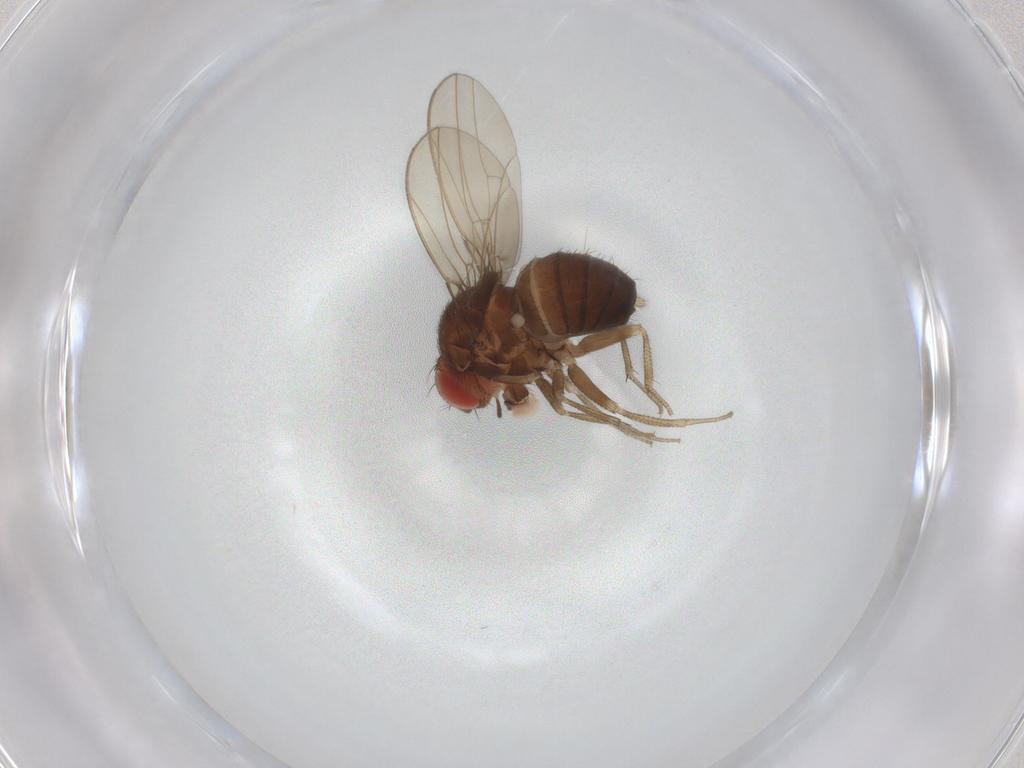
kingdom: Animalia
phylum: Arthropoda
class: Insecta
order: Diptera
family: Drosophilidae
